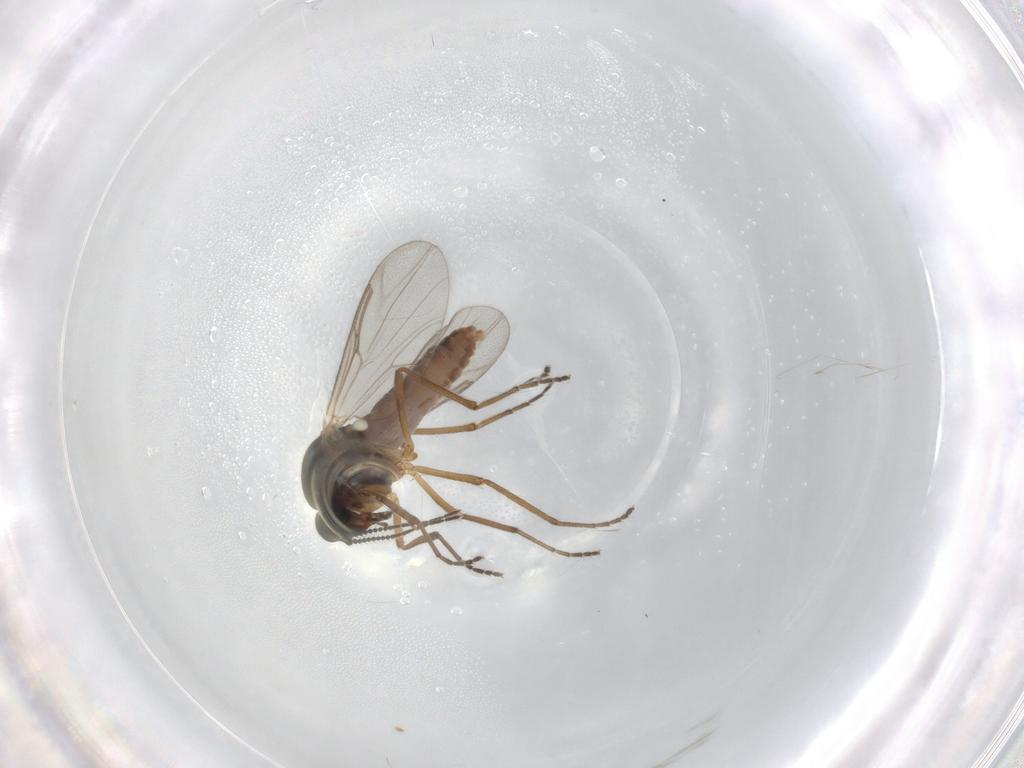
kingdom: Animalia
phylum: Arthropoda
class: Insecta
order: Diptera
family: Ceratopogonidae
